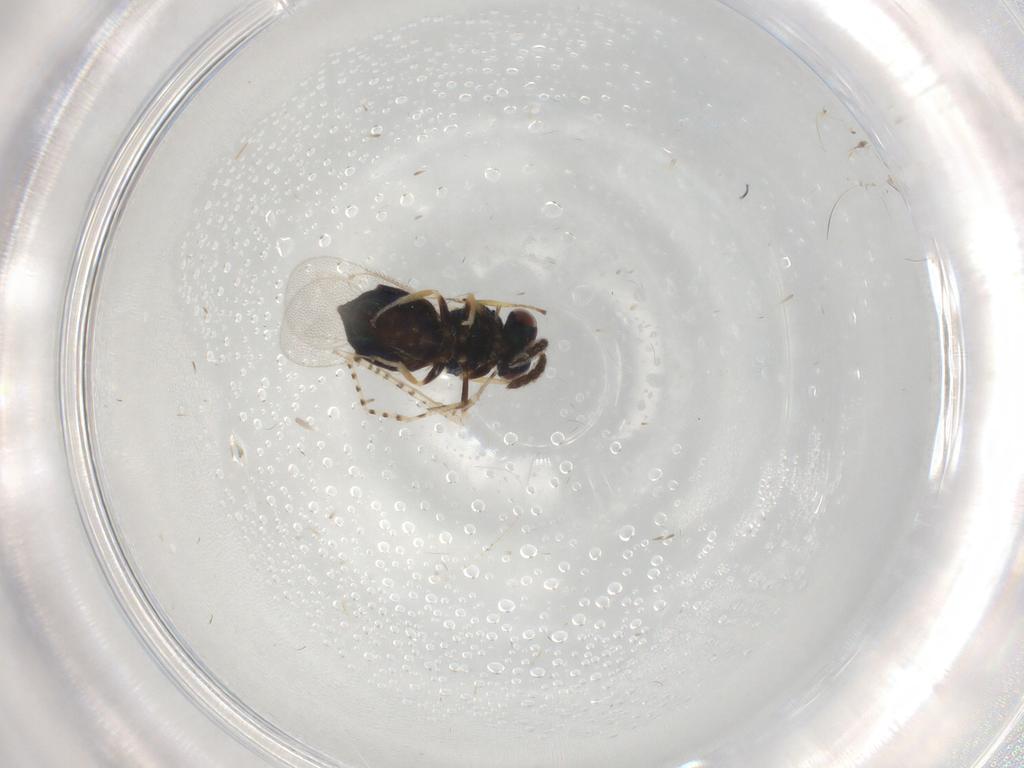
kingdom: Animalia
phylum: Arthropoda
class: Insecta
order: Hymenoptera
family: Eulophidae
